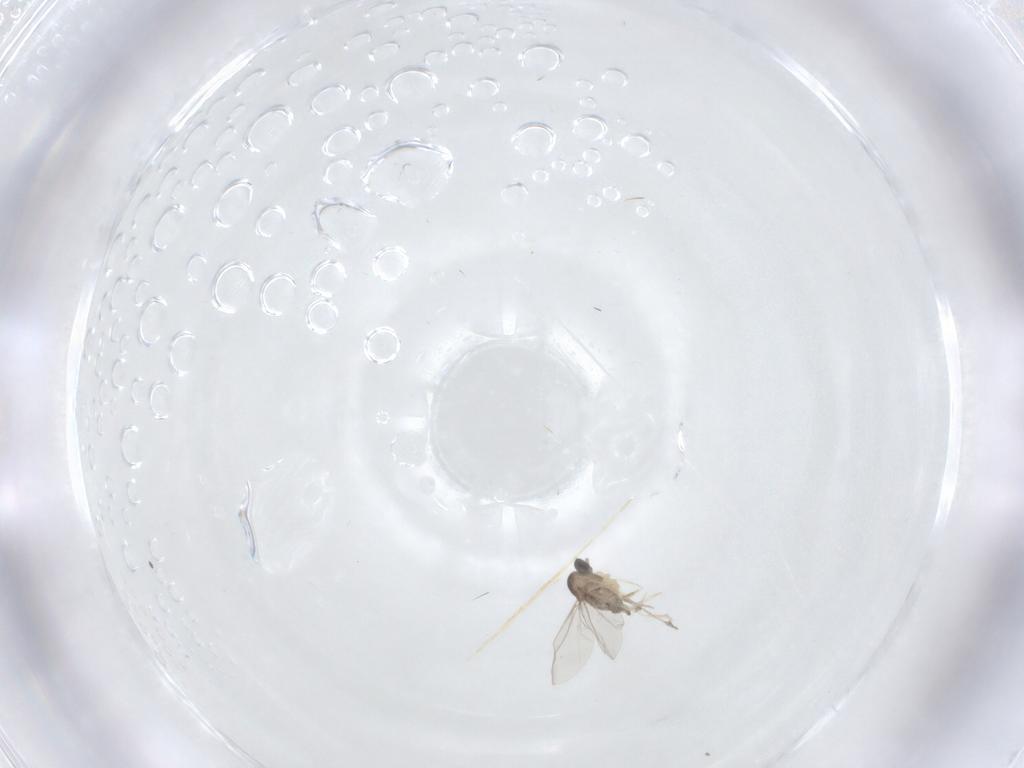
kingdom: Animalia
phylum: Arthropoda
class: Insecta
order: Diptera
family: Cecidomyiidae
